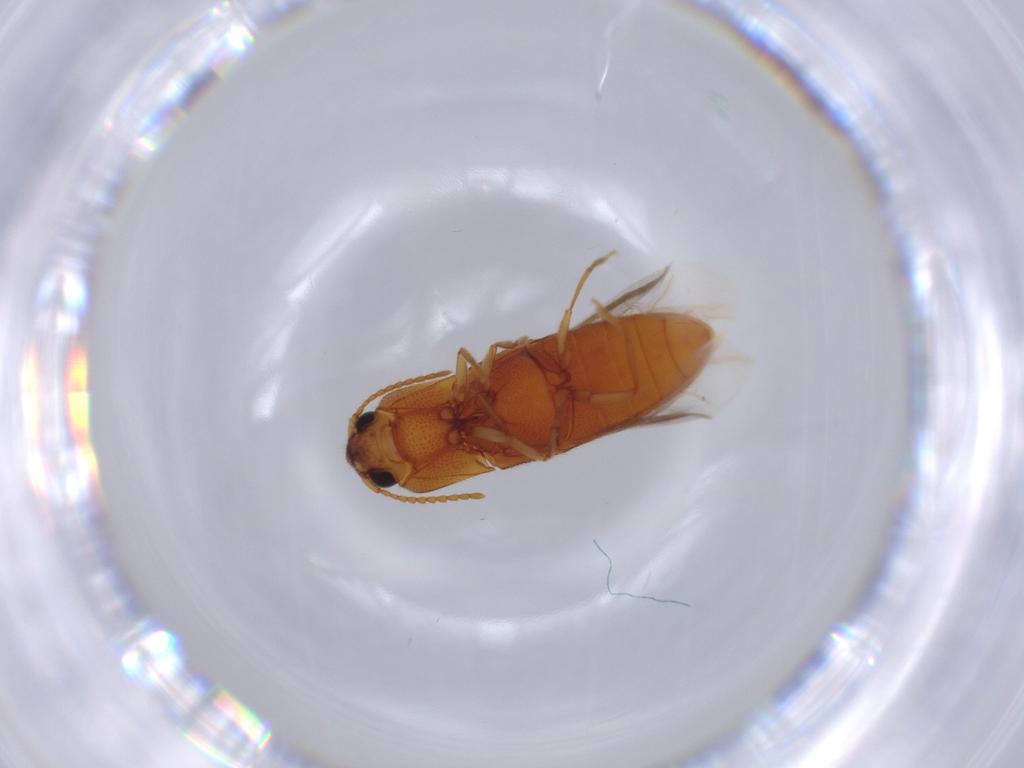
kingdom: Animalia
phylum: Arthropoda
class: Insecta
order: Coleoptera
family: Elateridae
